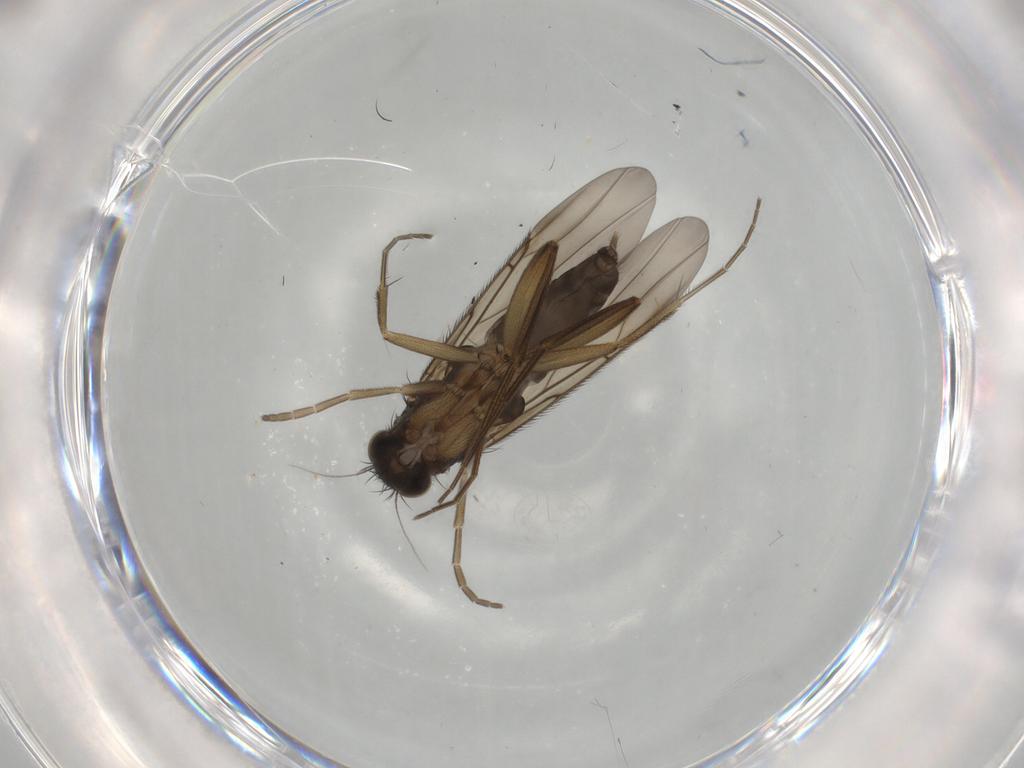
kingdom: Animalia
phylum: Arthropoda
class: Insecta
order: Diptera
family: Phoridae
